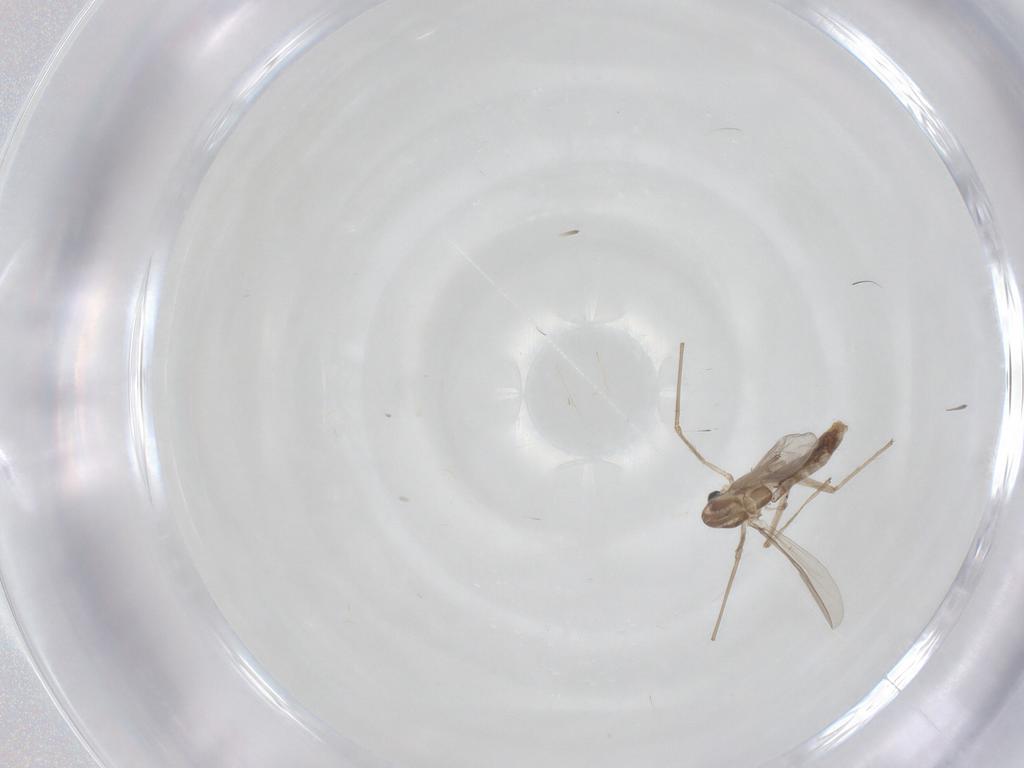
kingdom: Animalia
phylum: Arthropoda
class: Insecta
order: Diptera
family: Chironomidae
